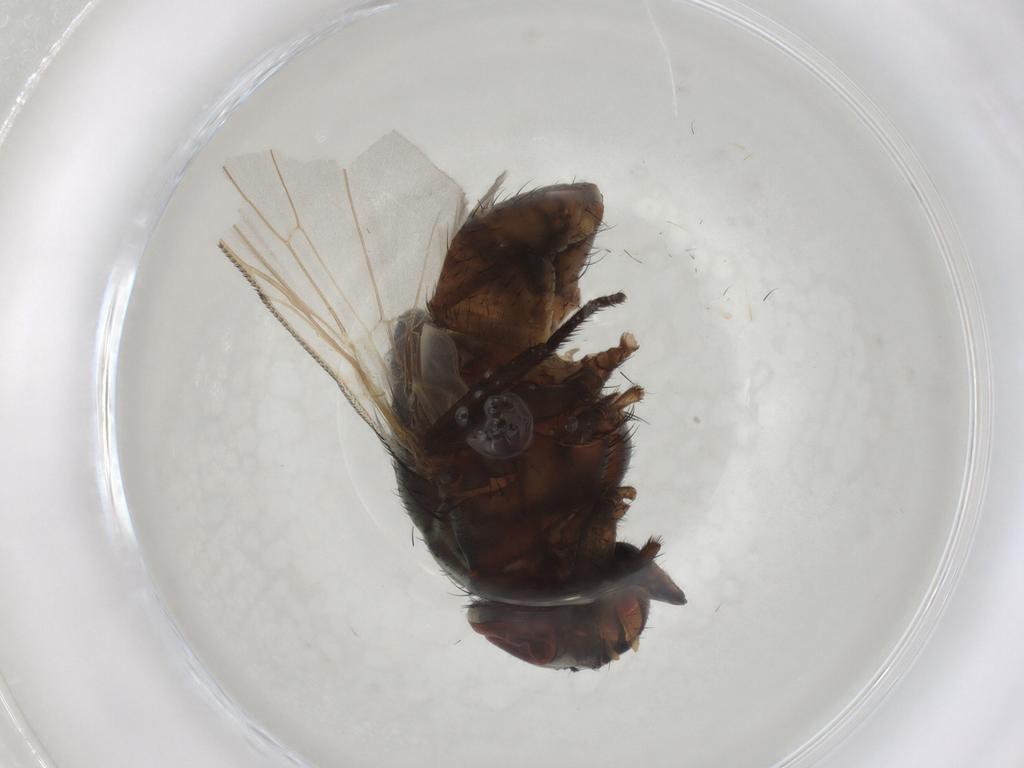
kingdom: Animalia
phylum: Arthropoda
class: Insecta
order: Diptera
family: Muscidae
